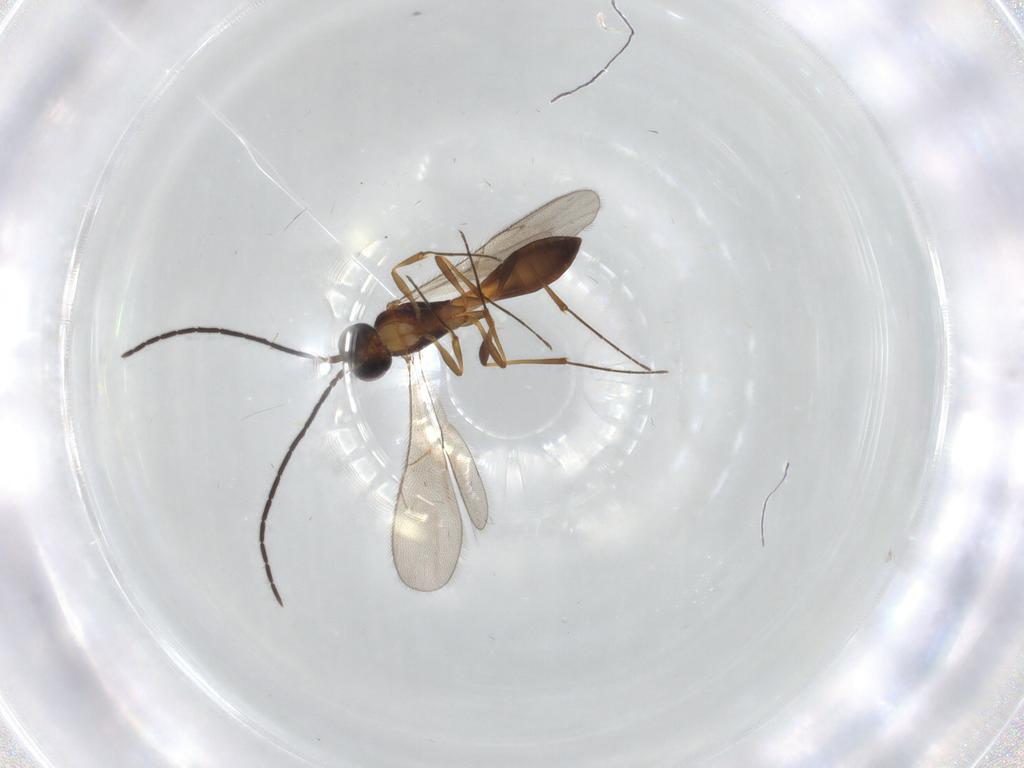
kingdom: Animalia
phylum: Arthropoda
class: Insecta
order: Hymenoptera
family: Scelionidae
